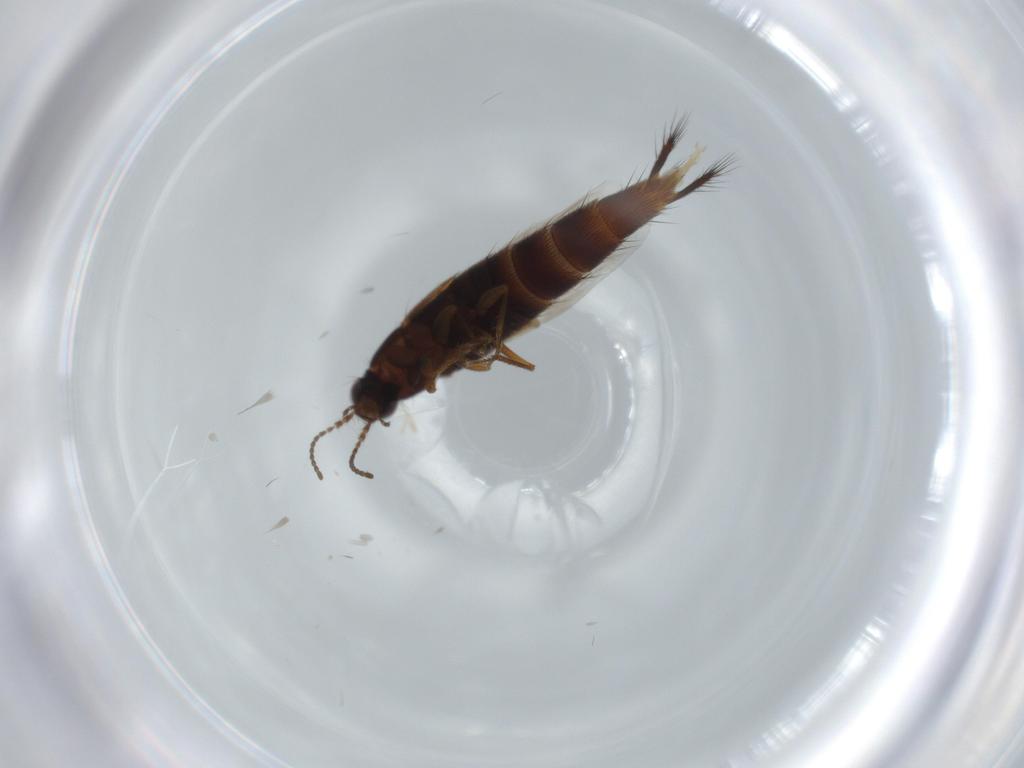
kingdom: Animalia
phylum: Arthropoda
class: Insecta
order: Coleoptera
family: Staphylinidae
